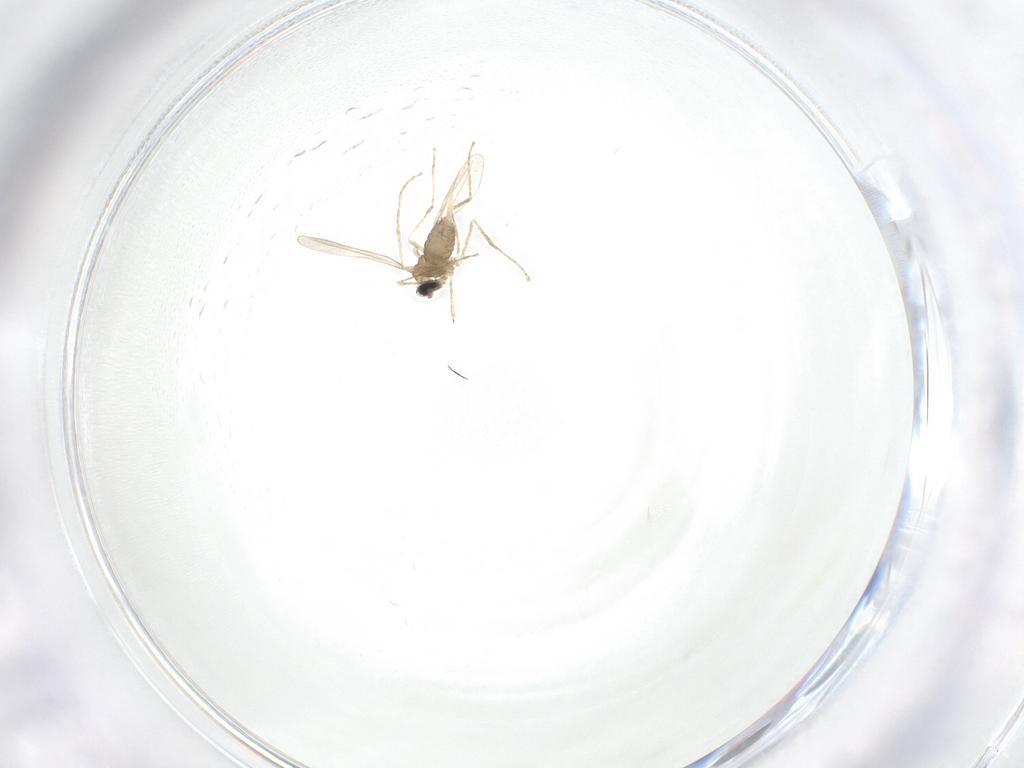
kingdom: Animalia
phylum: Arthropoda
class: Insecta
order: Diptera
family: Cecidomyiidae
